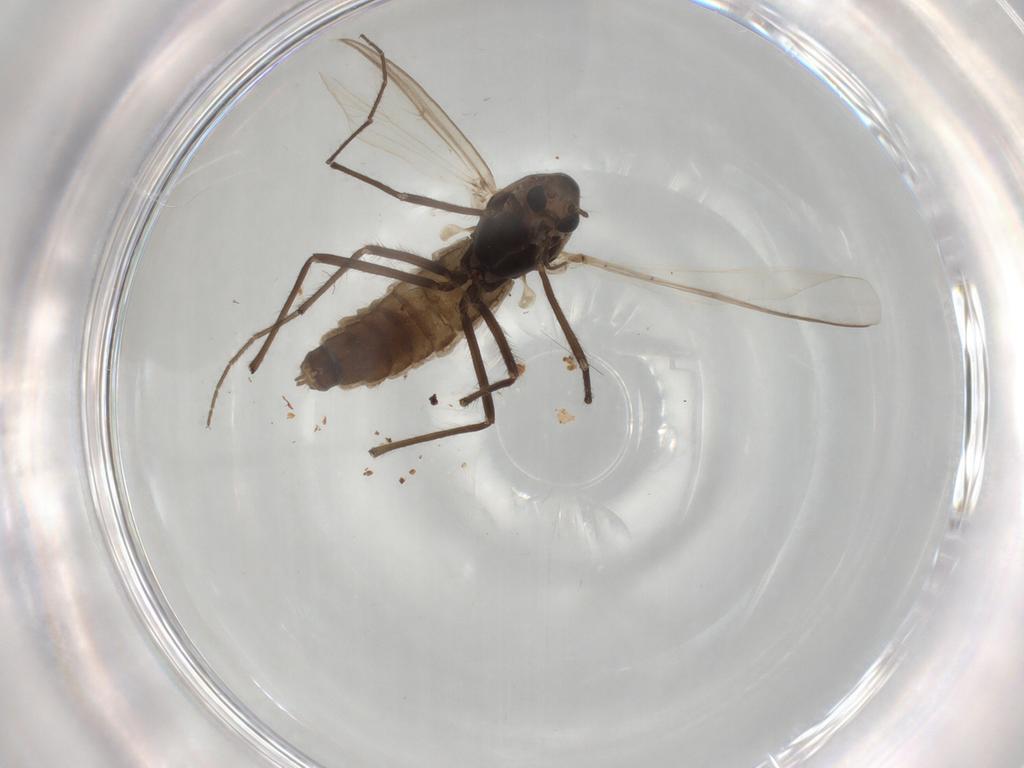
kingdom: Animalia
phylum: Arthropoda
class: Insecta
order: Diptera
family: Chironomidae
